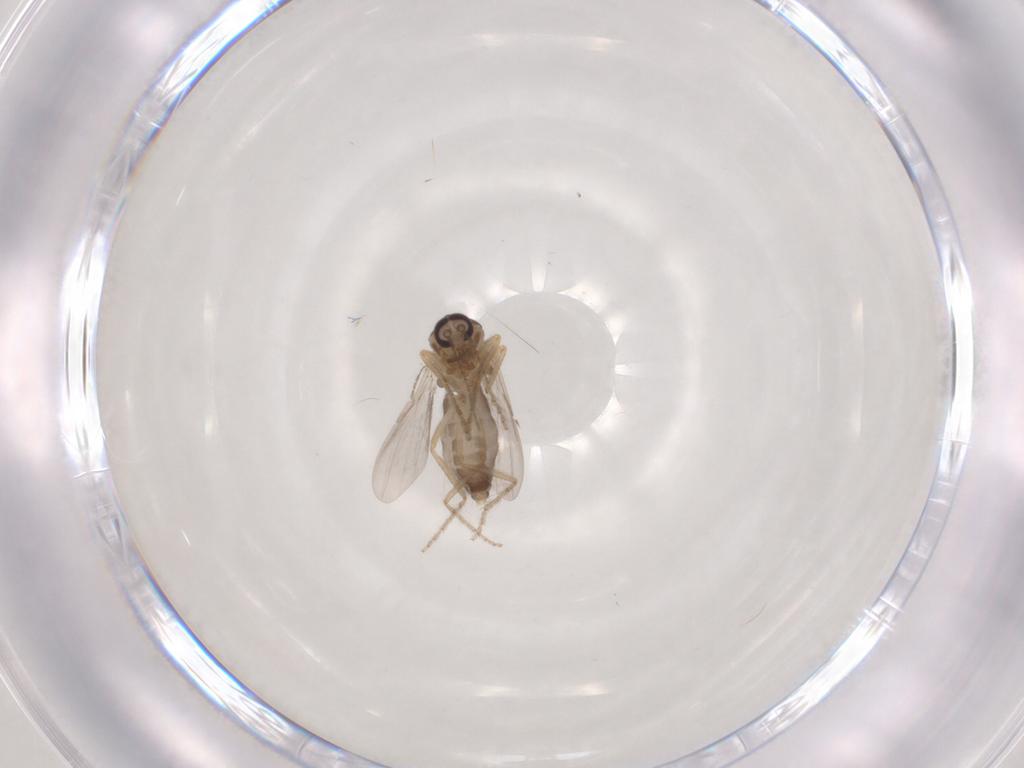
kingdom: Animalia
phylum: Arthropoda
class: Insecta
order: Diptera
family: Ceratopogonidae
